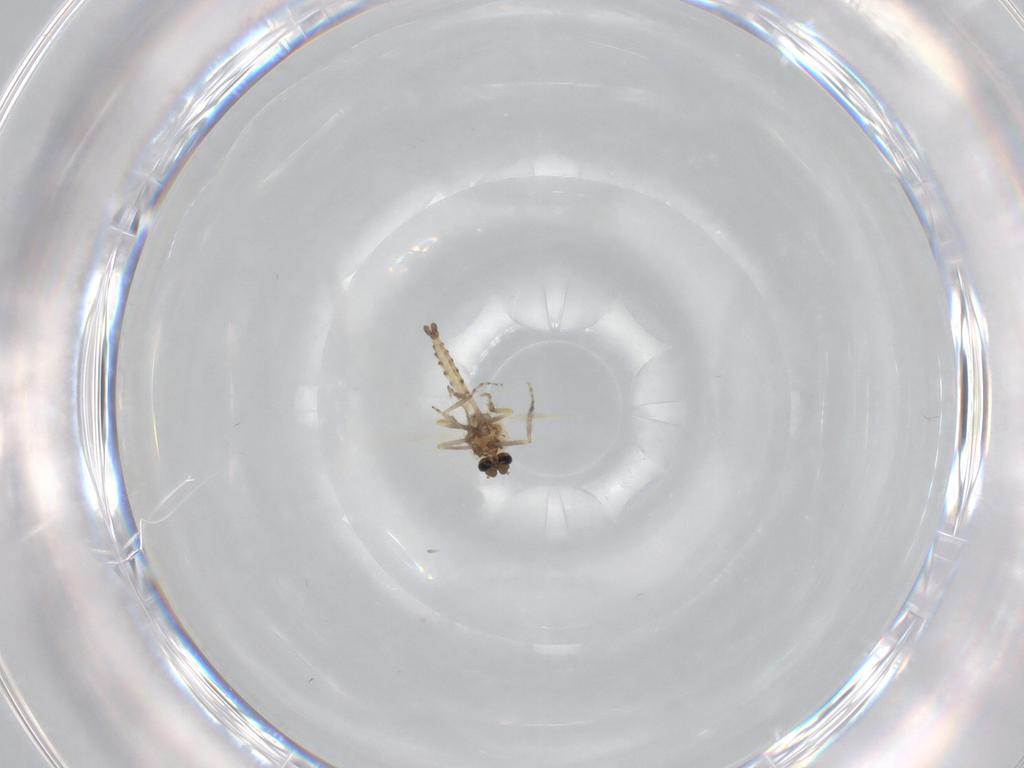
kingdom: Animalia
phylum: Arthropoda
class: Insecta
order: Diptera
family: Ceratopogonidae
